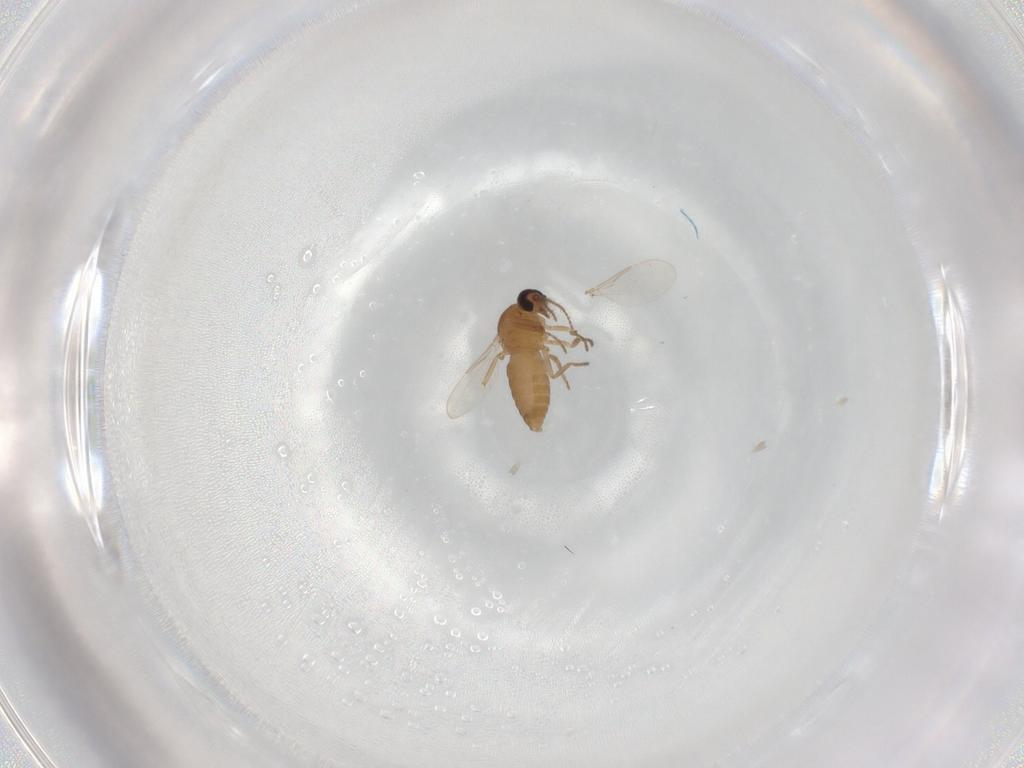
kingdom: Animalia
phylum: Arthropoda
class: Insecta
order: Diptera
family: Ceratopogonidae
